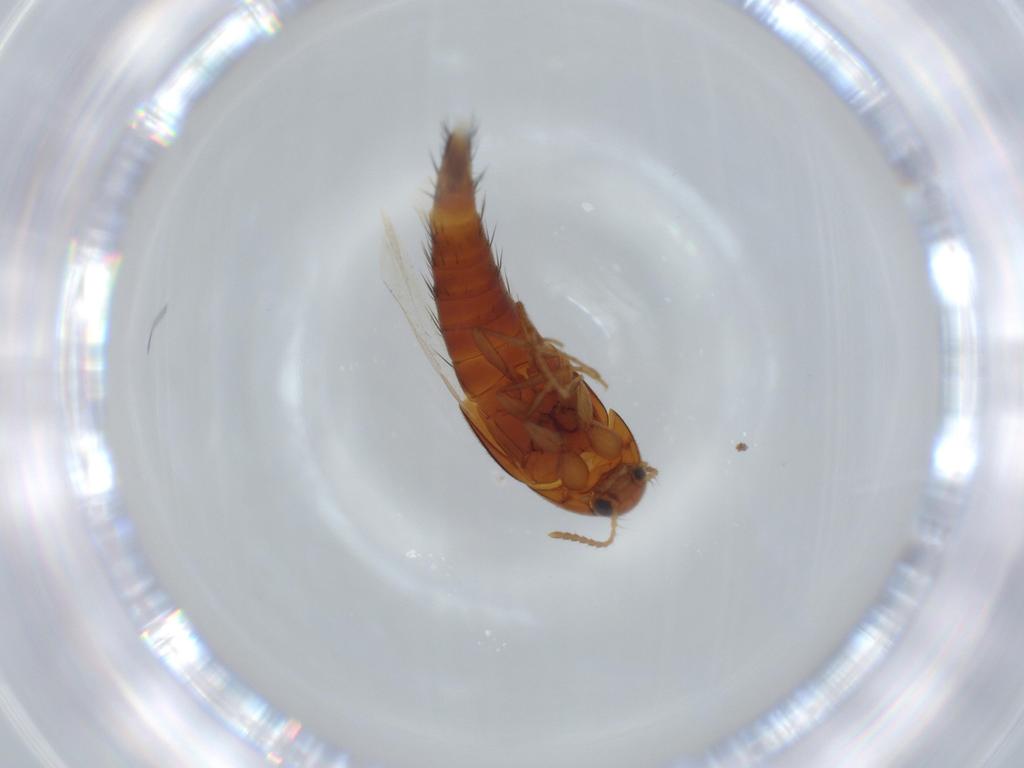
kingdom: Animalia
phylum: Arthropoda
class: Insecta
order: Coleoptera
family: Staphylinidae
